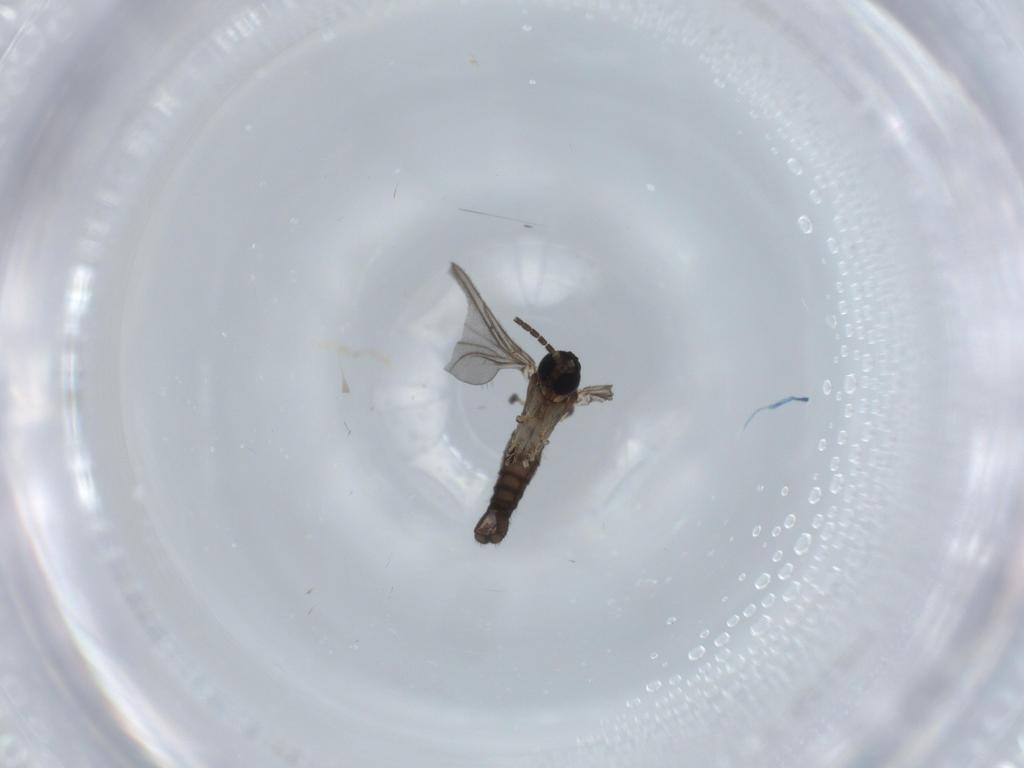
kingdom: Animalia
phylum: Arthropoda
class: Insecta
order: Diptera
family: Sciaridae
